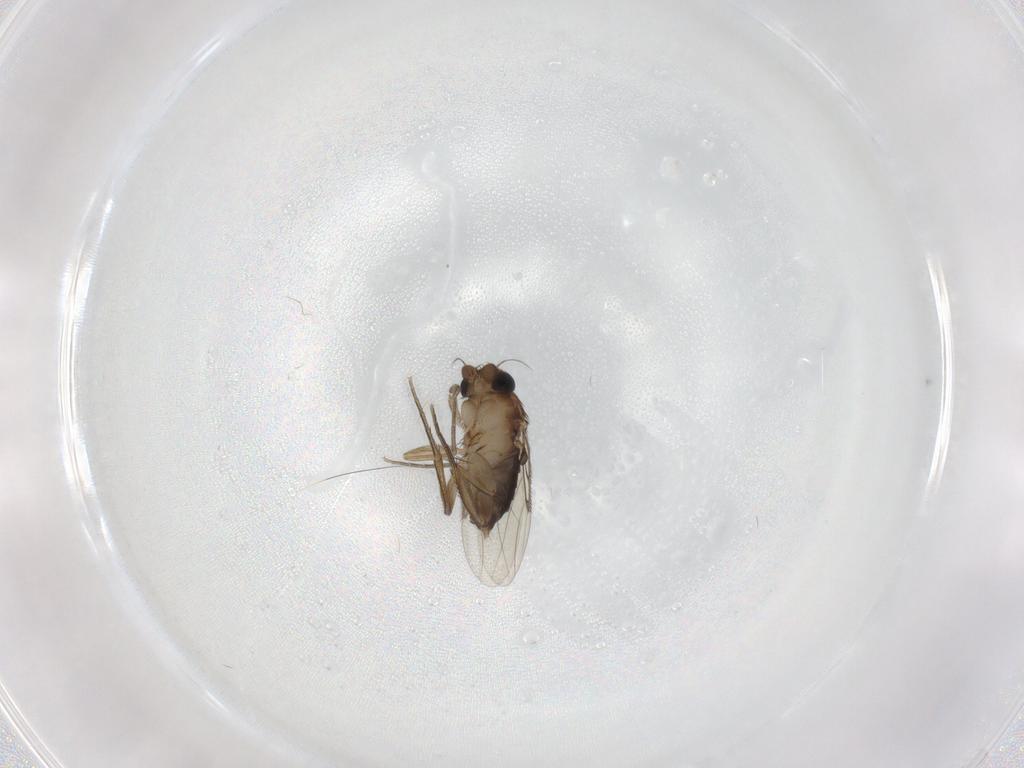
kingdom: Animalia
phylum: Arthropoda
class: Insecta
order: Diptera
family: Phoridae
